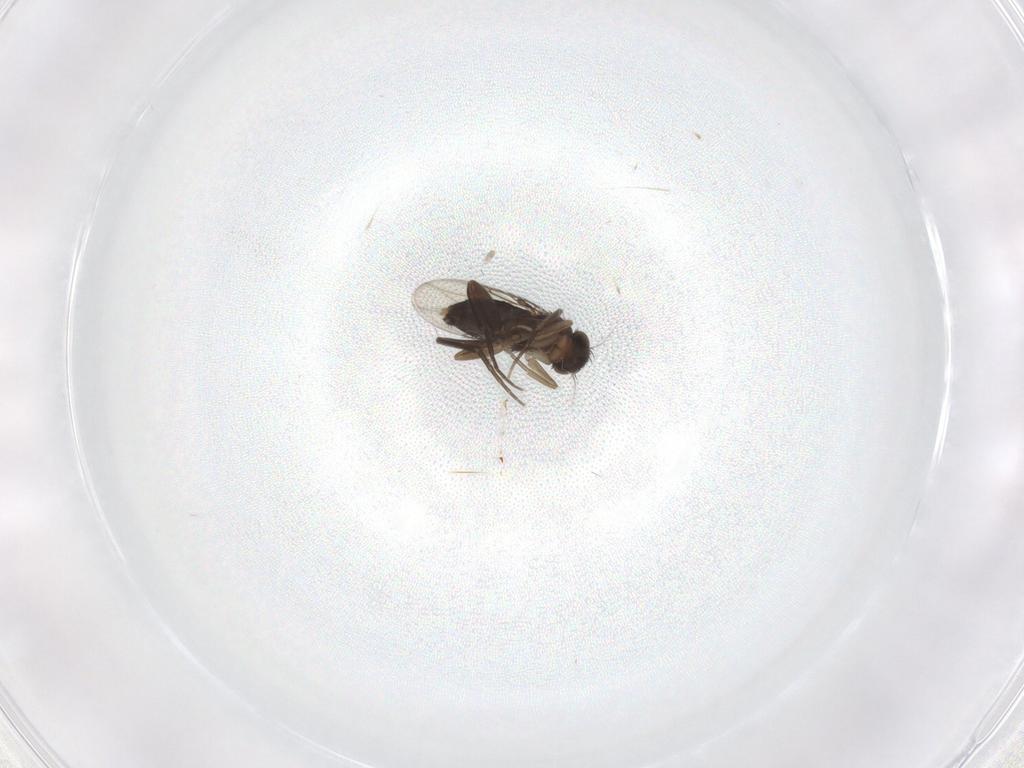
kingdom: Animalia
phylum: Arthropoda
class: Insecta
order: Diptera
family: Phoridae
